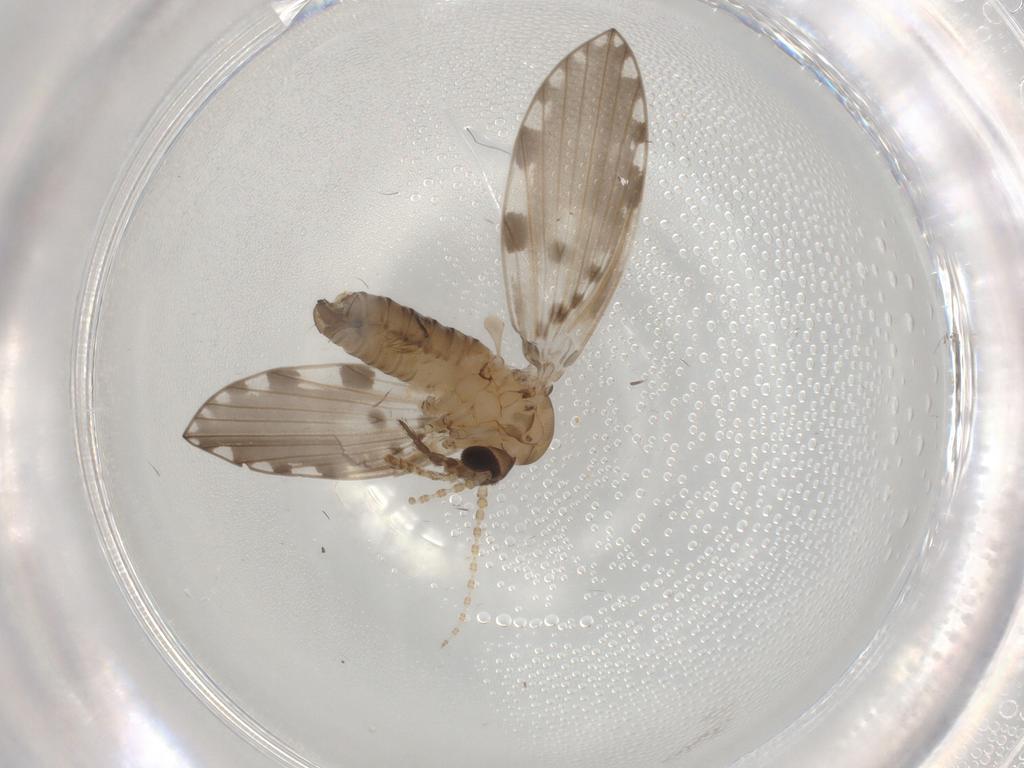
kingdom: Animalia
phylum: Arthropoda
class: Insecta
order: Diptera
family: Psychodidae
